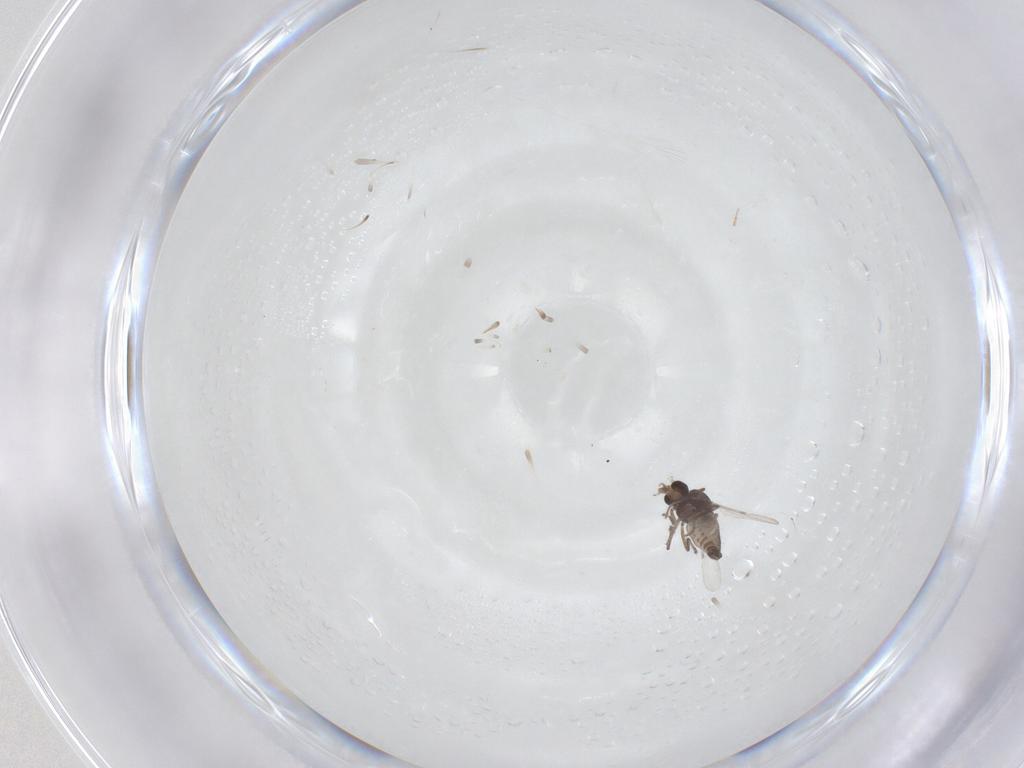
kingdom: Animalia
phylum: Arthropoda
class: Insecta
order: Diptera
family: Ceratopogonidae
